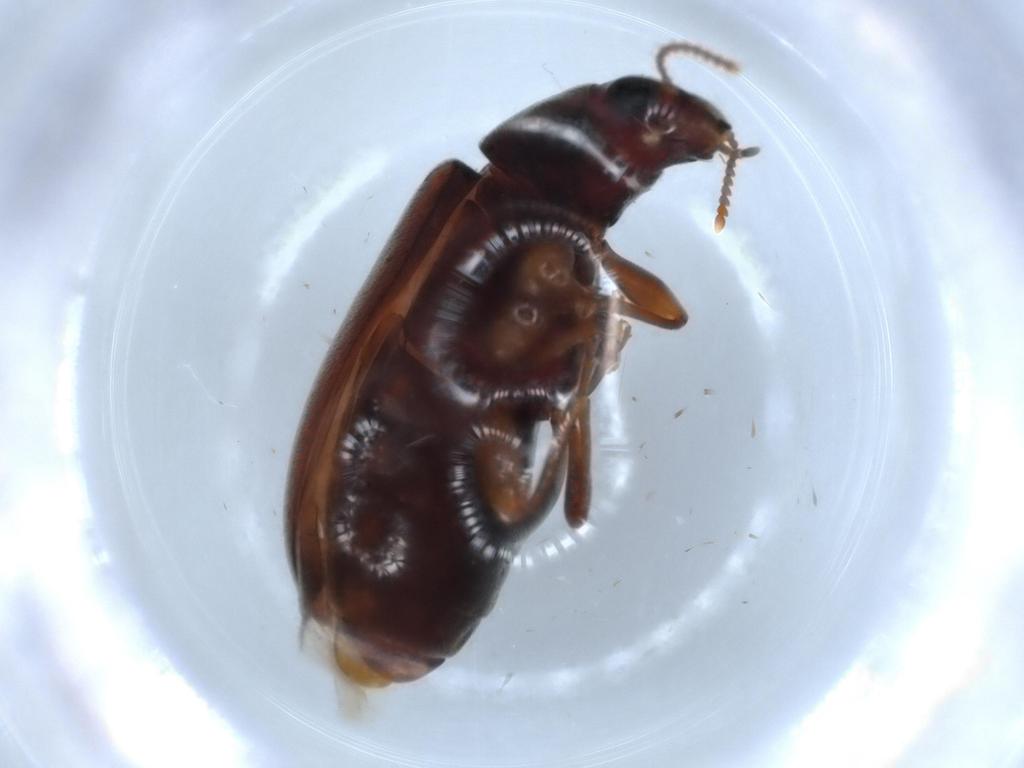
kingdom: Animalia
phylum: Arthropoda
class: Insecta
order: Coleoptera
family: Mycteridae
